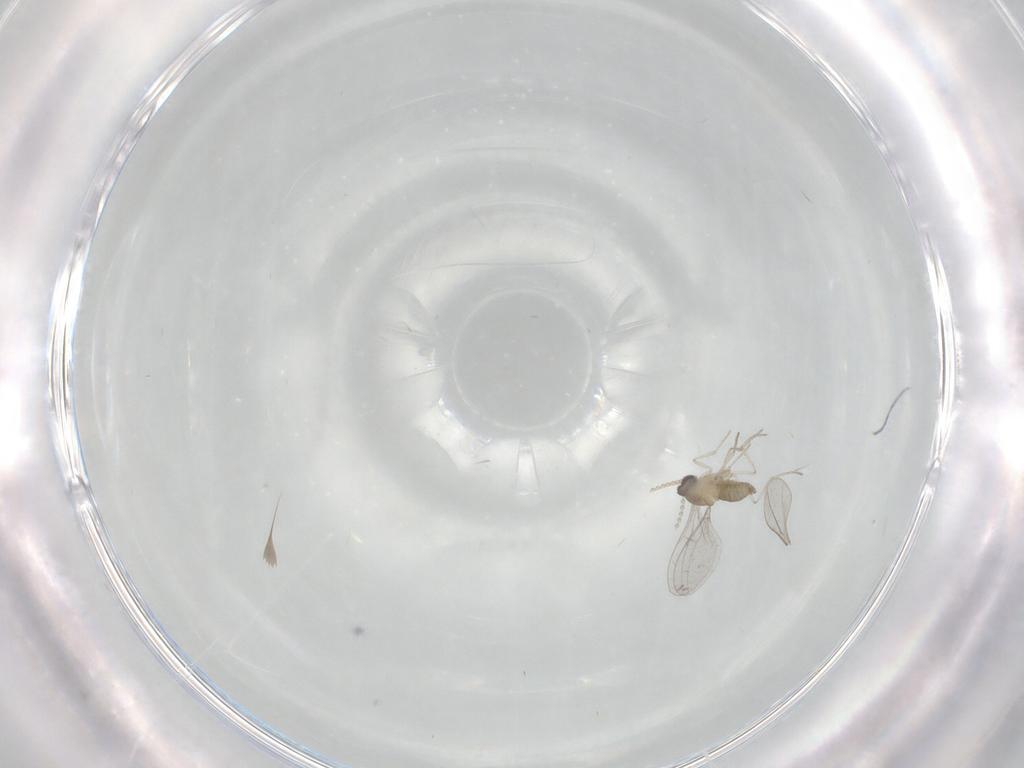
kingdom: Animalia
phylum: Arthropoda
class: Insecta
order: Diptera
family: Cecidomyiidae
